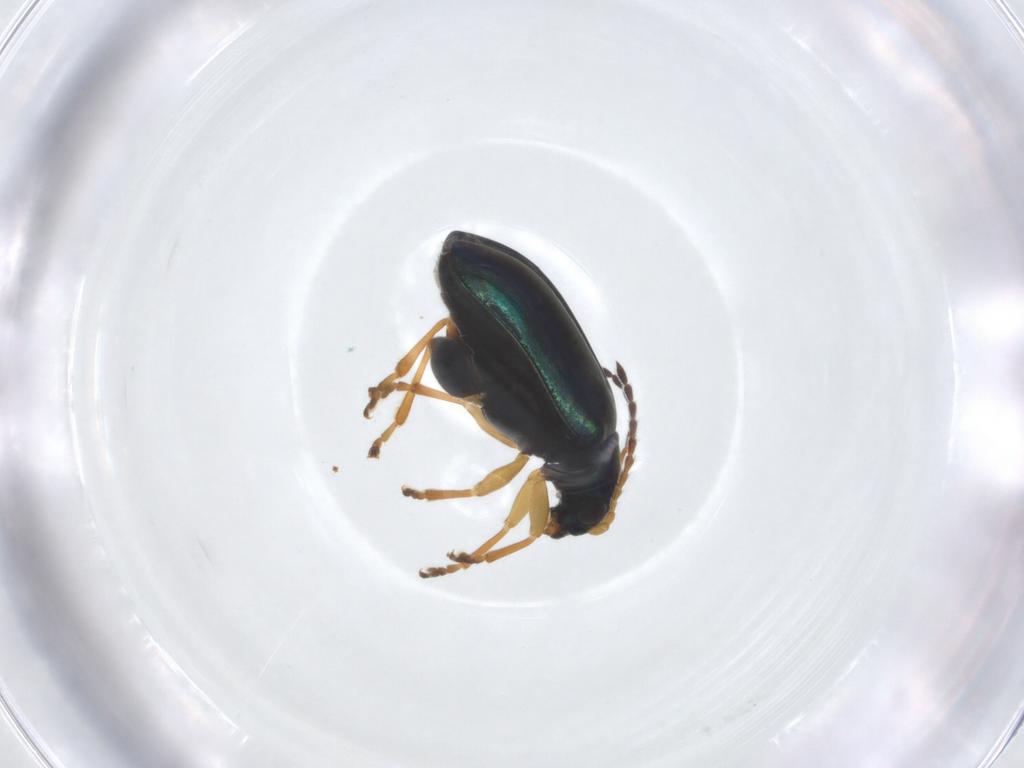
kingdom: Animalia
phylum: Arthropoda
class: Insecta
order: Coleoptera
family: Chrysomelidae
